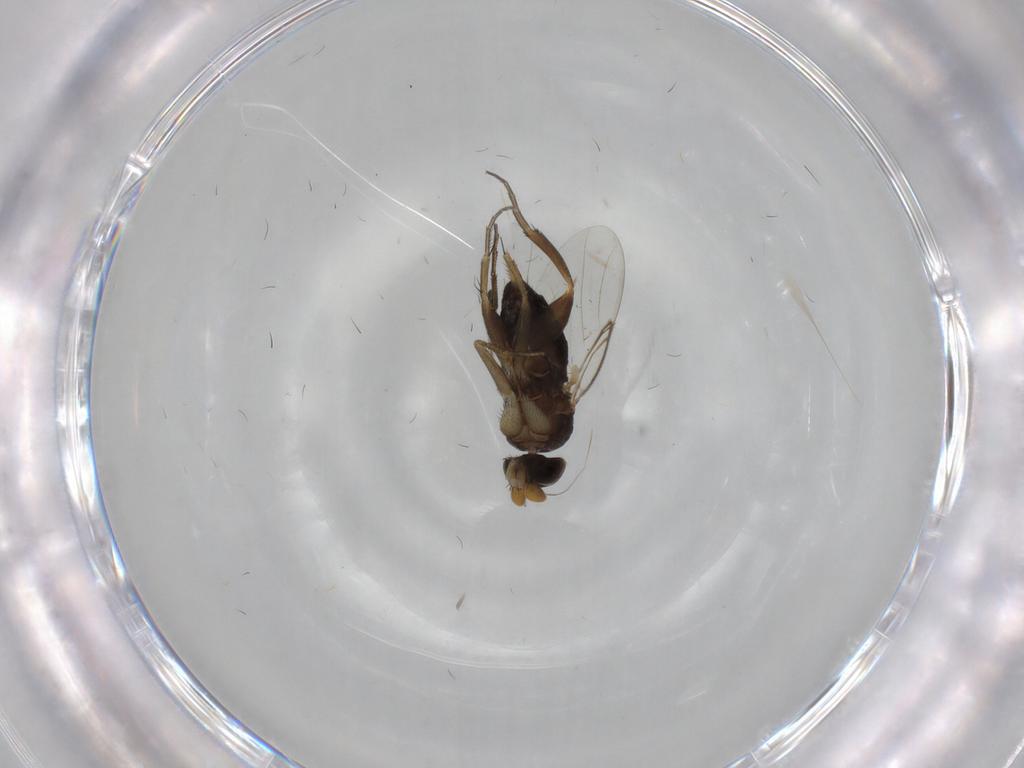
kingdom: Animalia
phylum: Arthropoda
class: Insecta
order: Diptera
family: Phoridae
